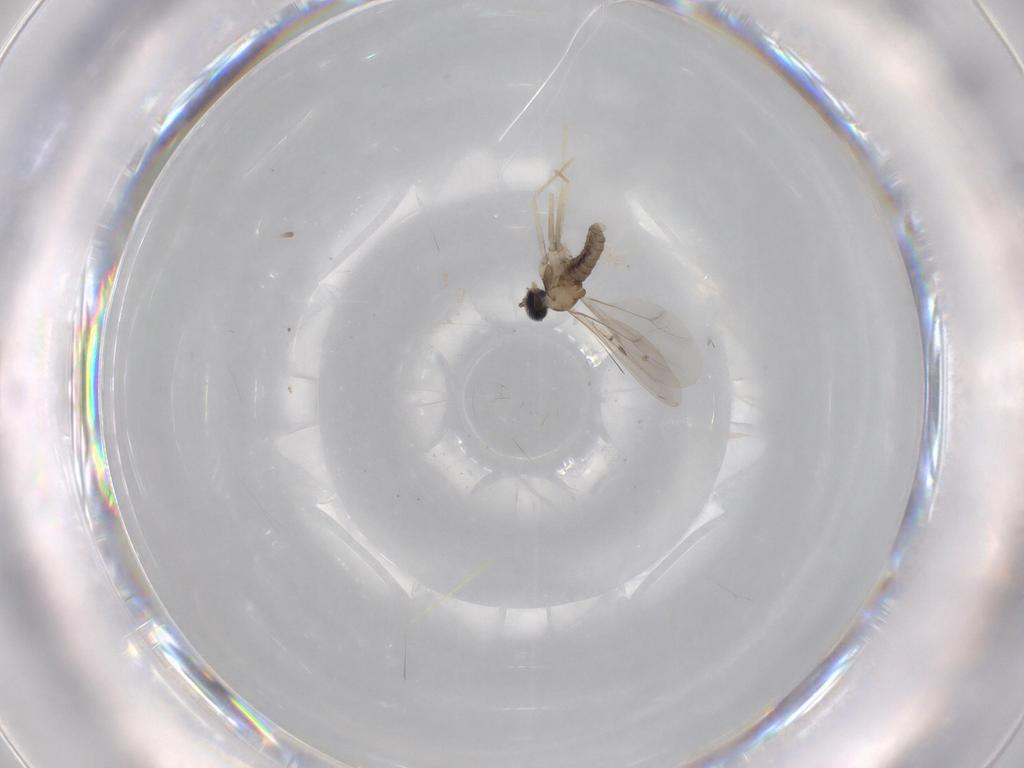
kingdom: Animalia
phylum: Arthropoda
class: Insecta
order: Diptera
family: Chironomidae
